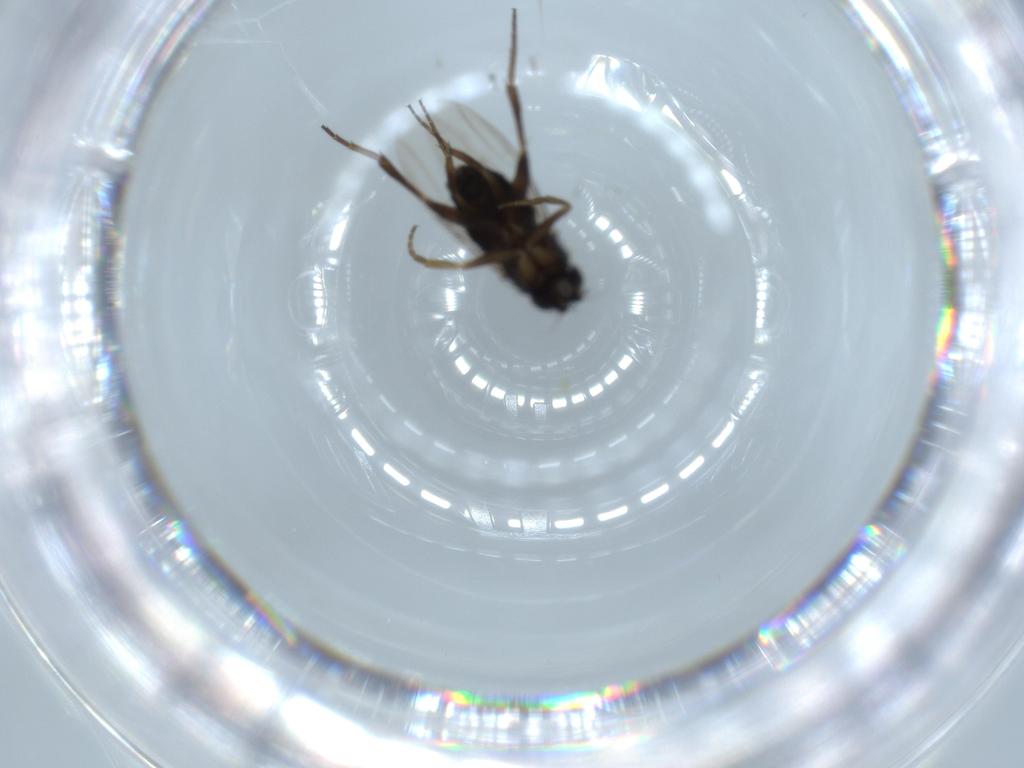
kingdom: Animalia
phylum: Arthropoda
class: Insecta
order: Diptera
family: Phoridae
